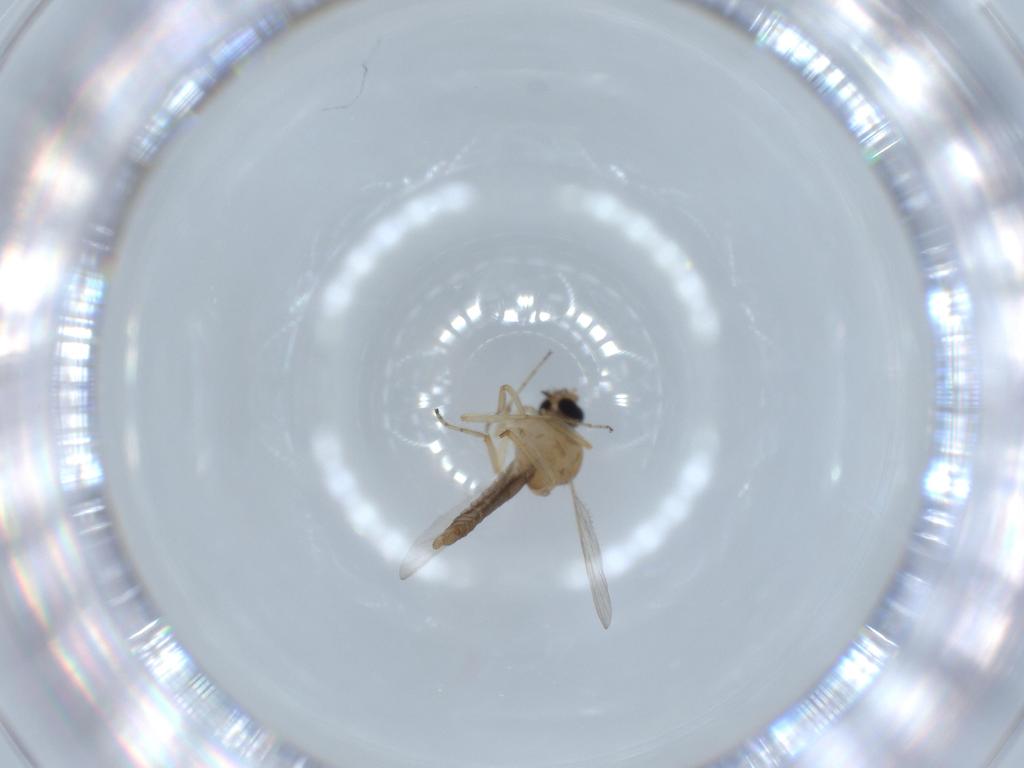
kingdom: Animalia
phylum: Arthropoda
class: Insecta
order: Diptera
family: Ceratopogonidae
